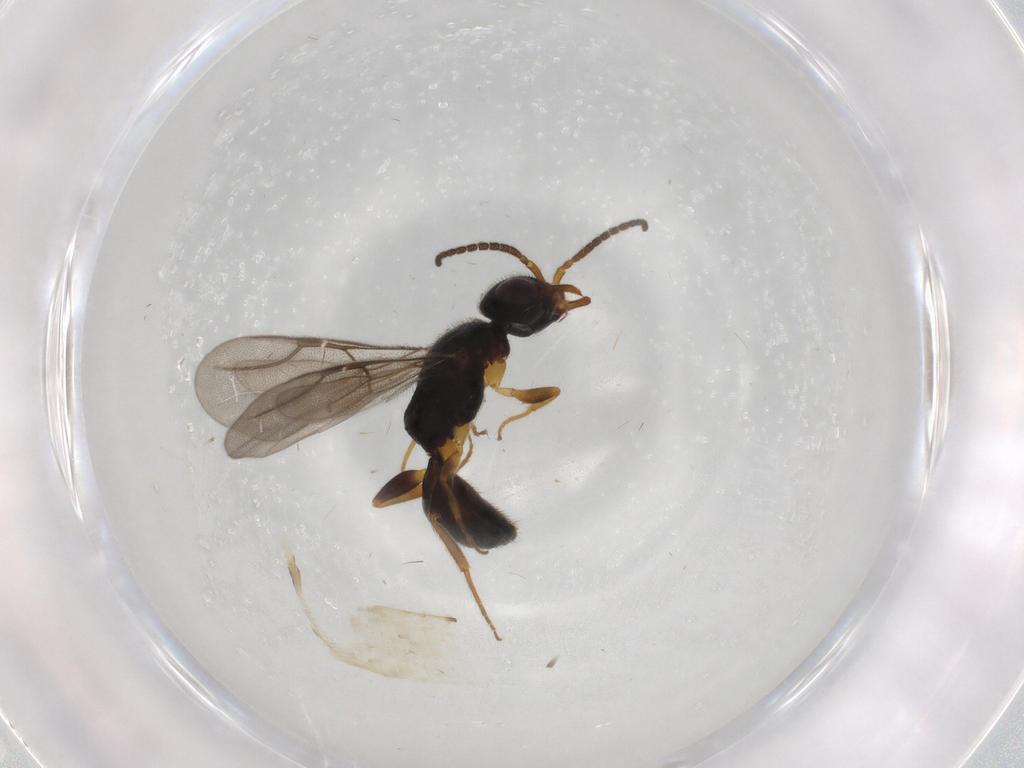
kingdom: Animalia
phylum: Arthropoda
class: Insecta
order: Hymenoptera
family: Bethylidae
